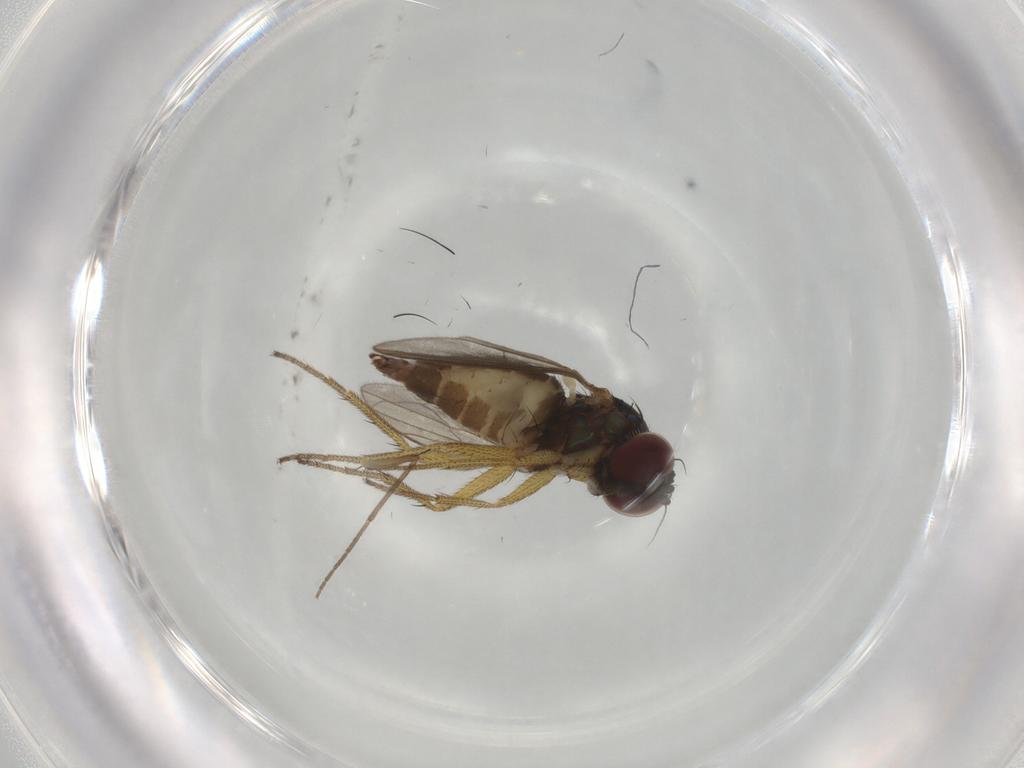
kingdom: Animalia
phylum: Arthropoda
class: Insecta
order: Diptera
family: Dolichopodidae
